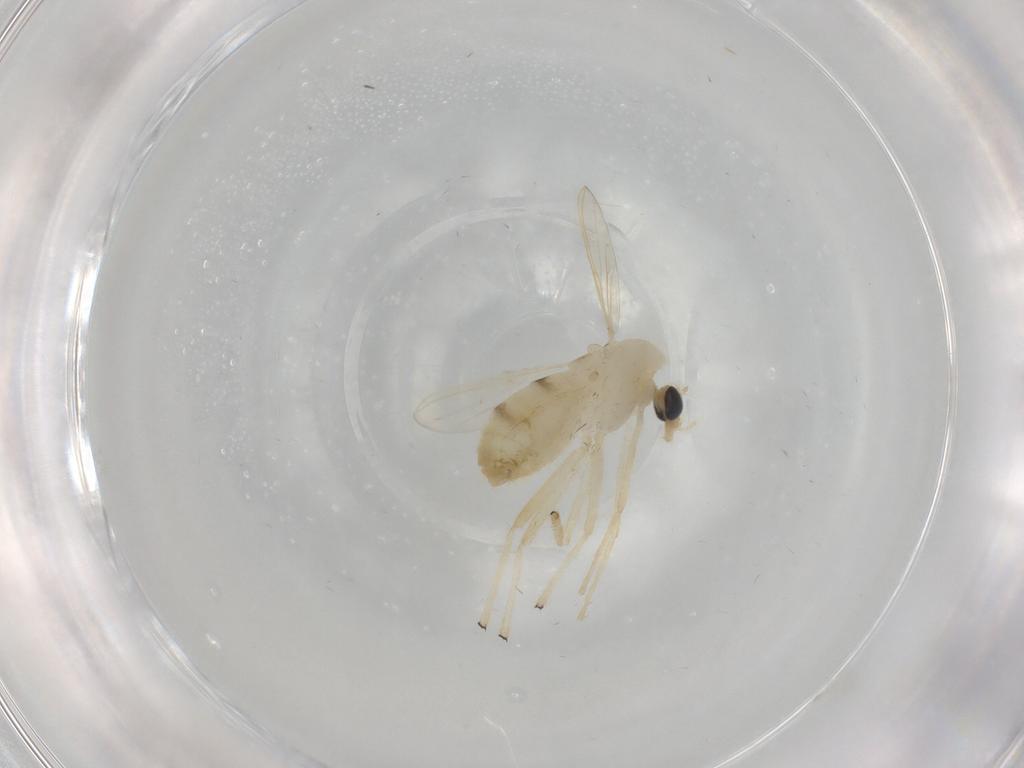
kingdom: Animalia
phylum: Arthropoda
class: Insecta
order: Diptera
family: Chironomidae
